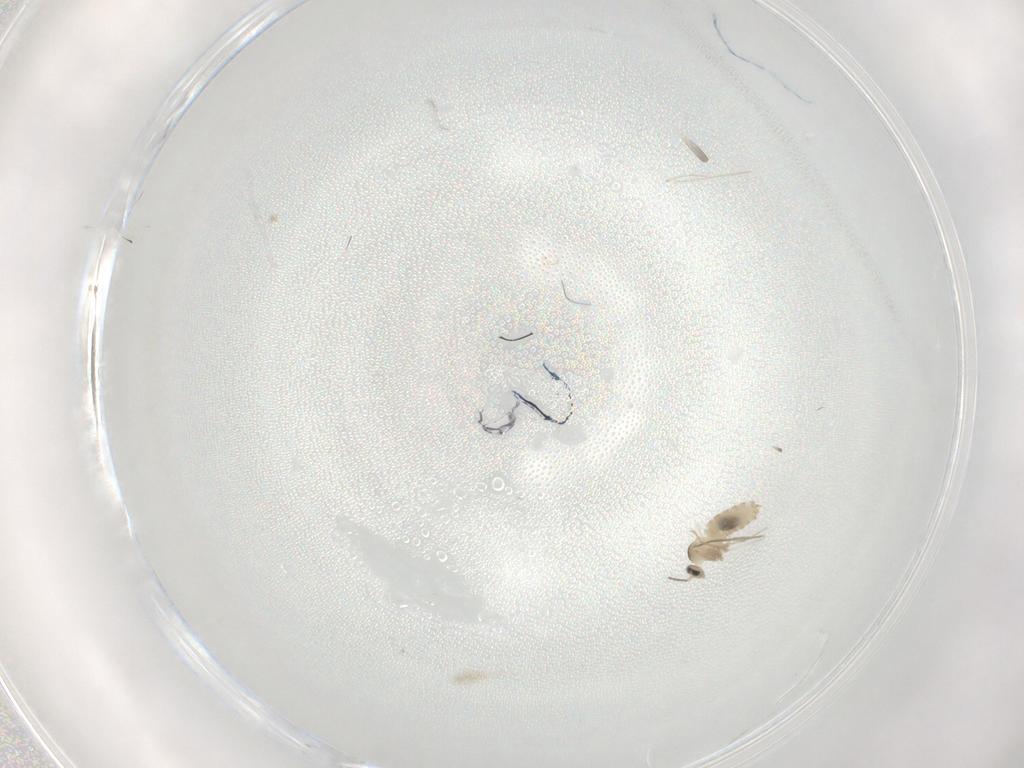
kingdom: Animalia
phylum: Arthropoda
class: Insecta
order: Diptera
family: Cecidomyiidae
